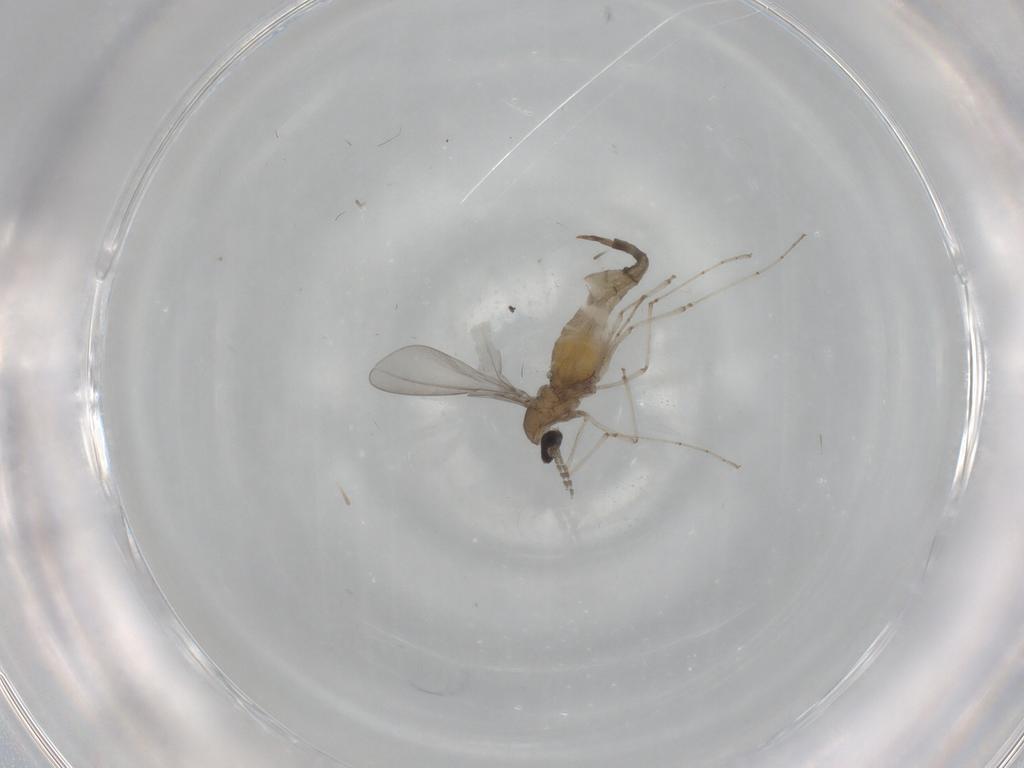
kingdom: Animalia
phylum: Arthropoda
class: Insecta
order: Diptera
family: Cecidomyiidae
